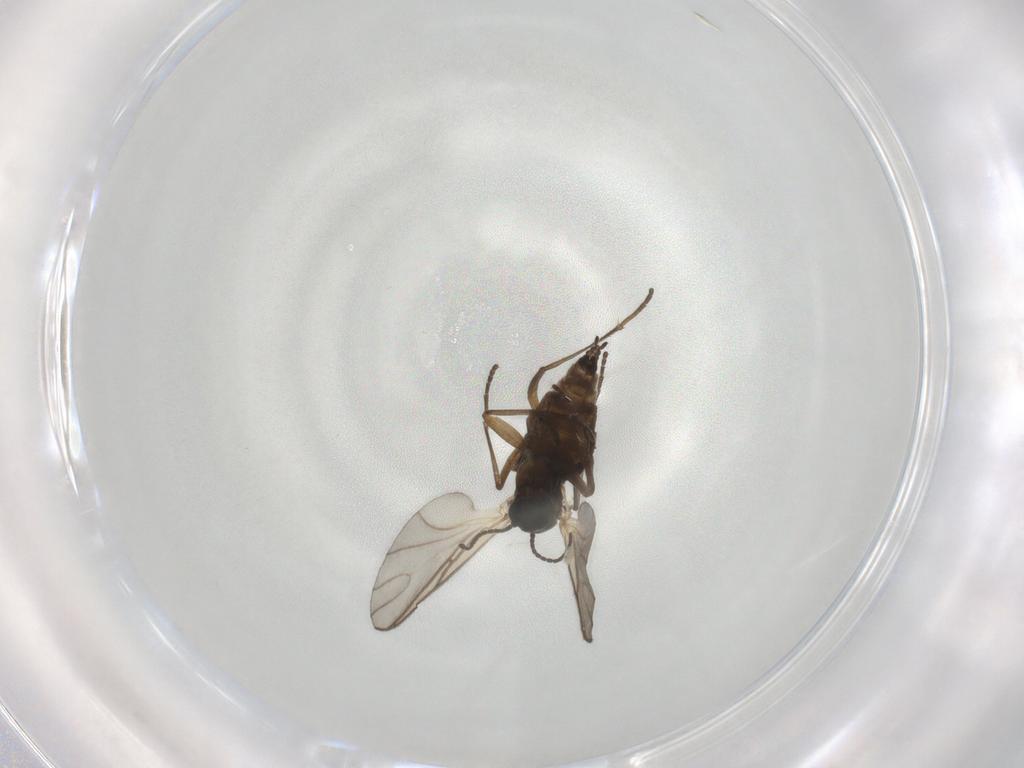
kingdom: Animalia
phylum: Arthropoda
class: Insecta
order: Diptera
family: Sciaridae
